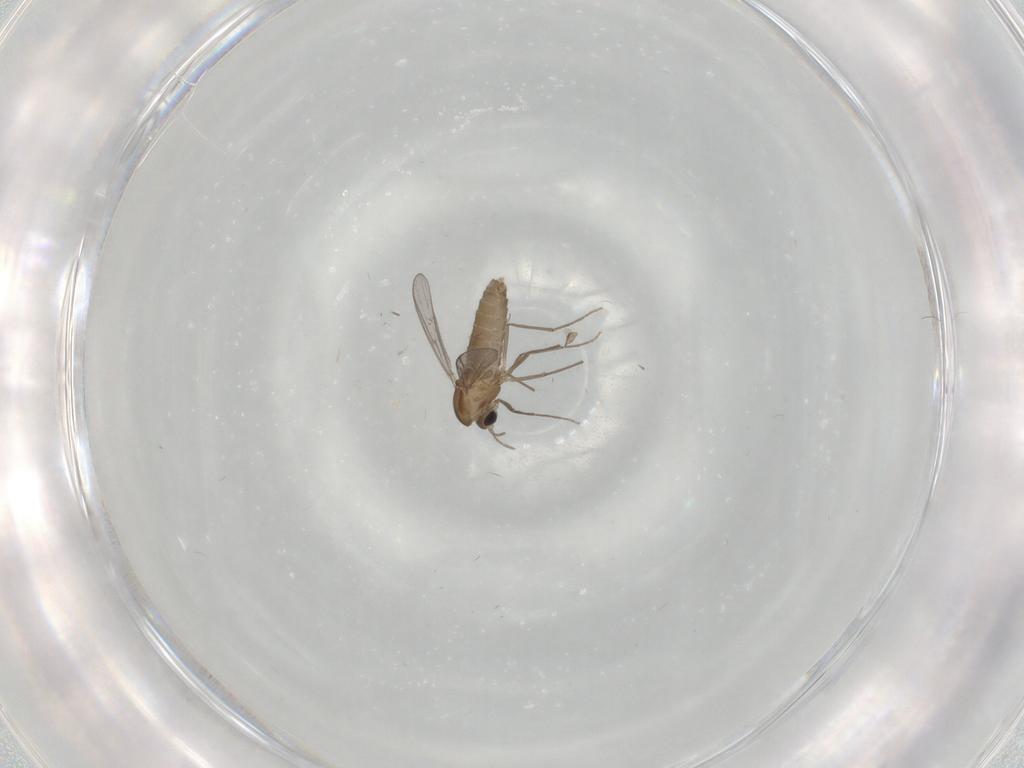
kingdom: Animalia
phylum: Arthropoda
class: Insecta
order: Diptera
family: Chironomidae
